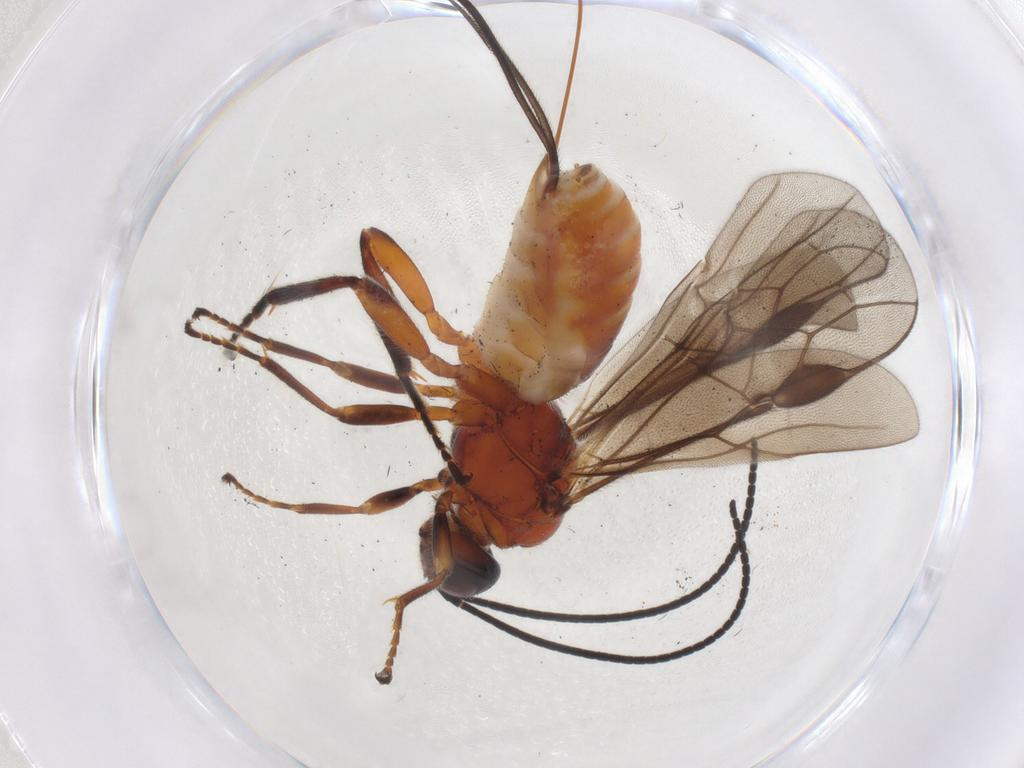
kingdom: Animalia
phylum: Arthropoda
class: Insecta
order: Hymenoptera
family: Braconidae
